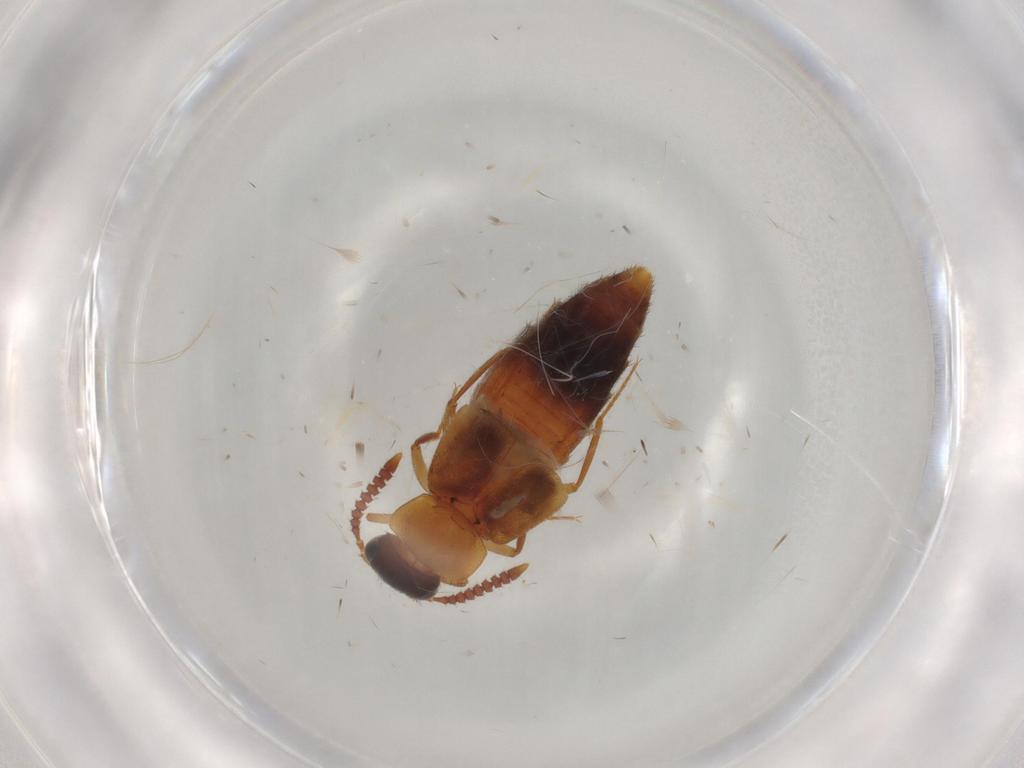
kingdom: Animalia
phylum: Arthropoda
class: Insecta
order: Coleoptera
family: Staphylinidae
